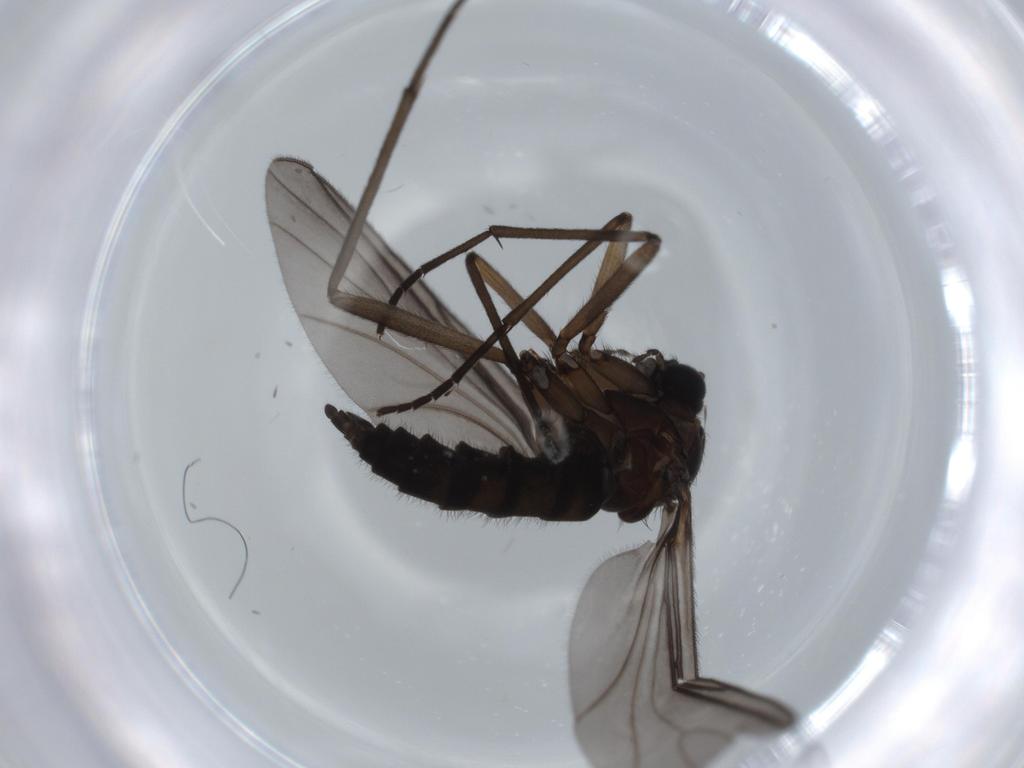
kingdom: Animalia
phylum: Arthropoda
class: Insecta
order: Diptera
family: Sciaridae
